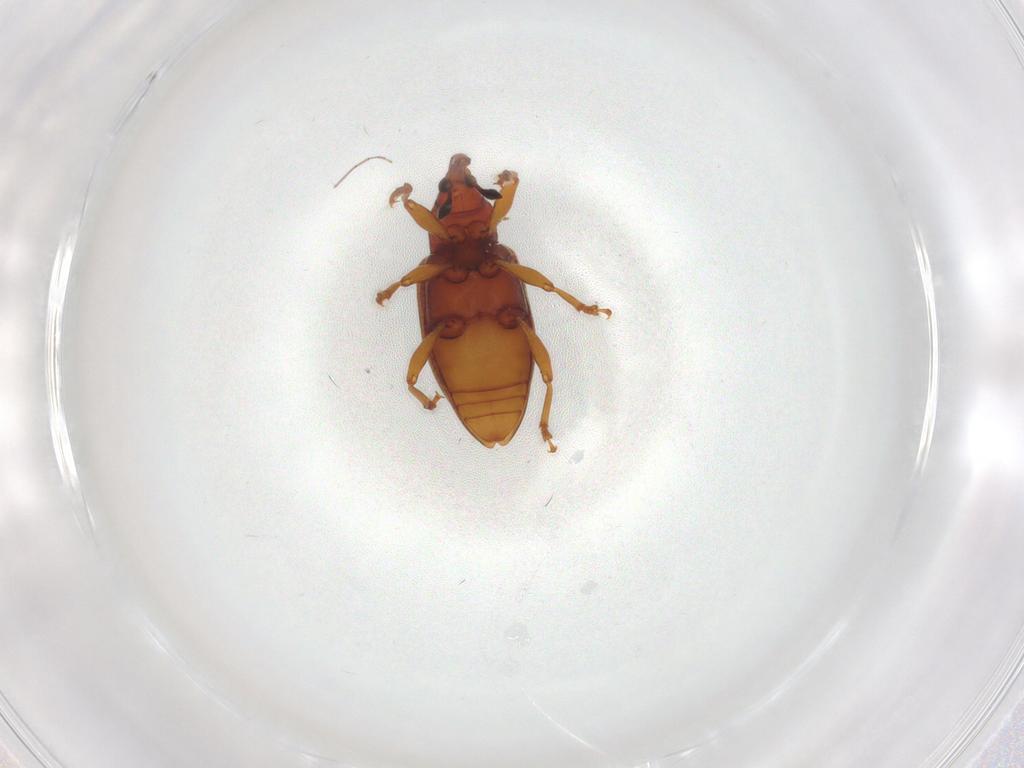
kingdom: Animalia
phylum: Arthropoda
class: Insecta
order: Coleoptera
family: Curculionidae
